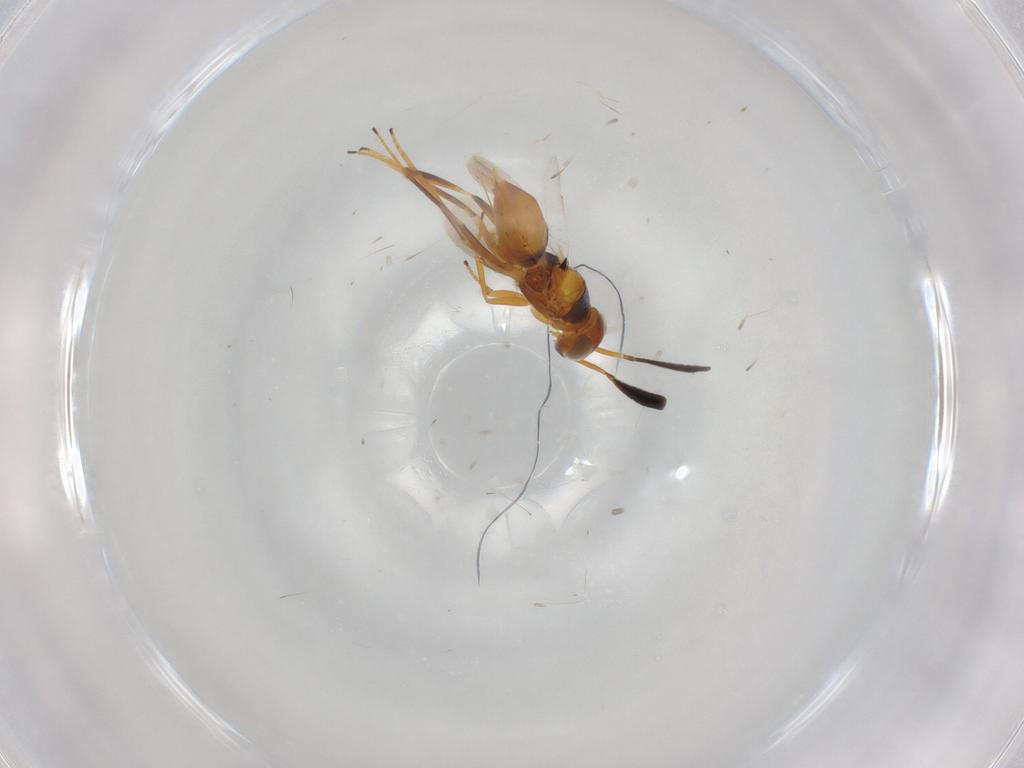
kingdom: Animalia
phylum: Arthropoda
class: Insecta
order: Hymenoptera
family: Encyrtidae
